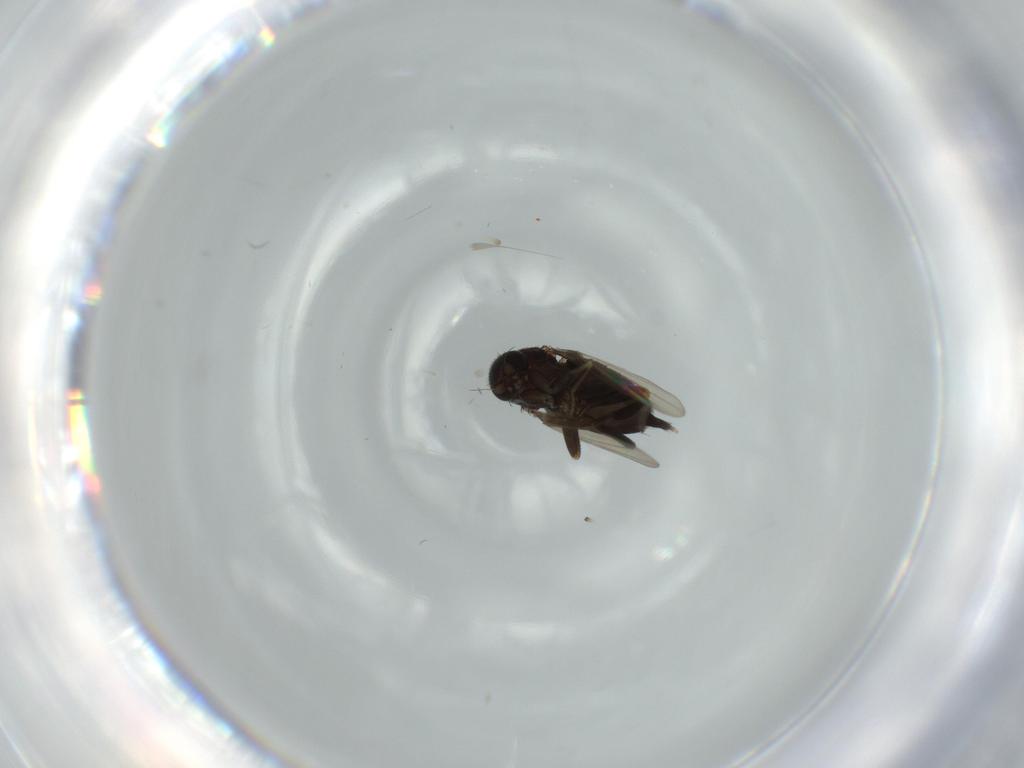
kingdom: Animalia
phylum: Arthropoda
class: Insecta
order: Diptera
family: Phoridae
